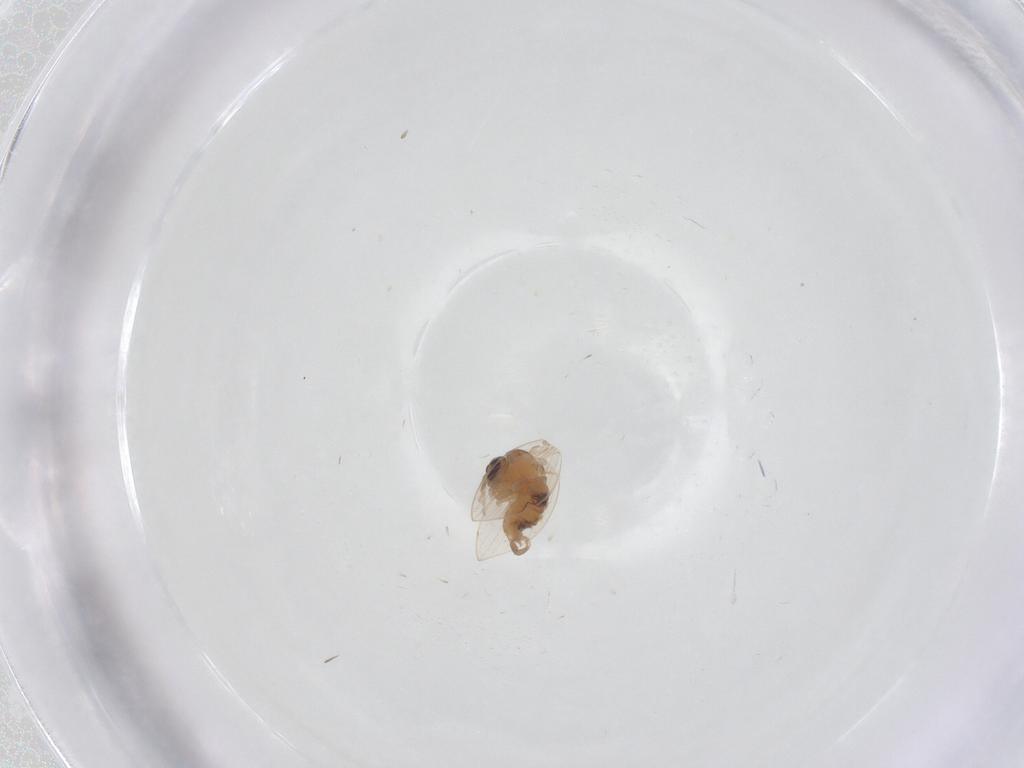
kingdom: Animalia
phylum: Arthropoda
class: Insecta
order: Diptera
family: Psychodidae
